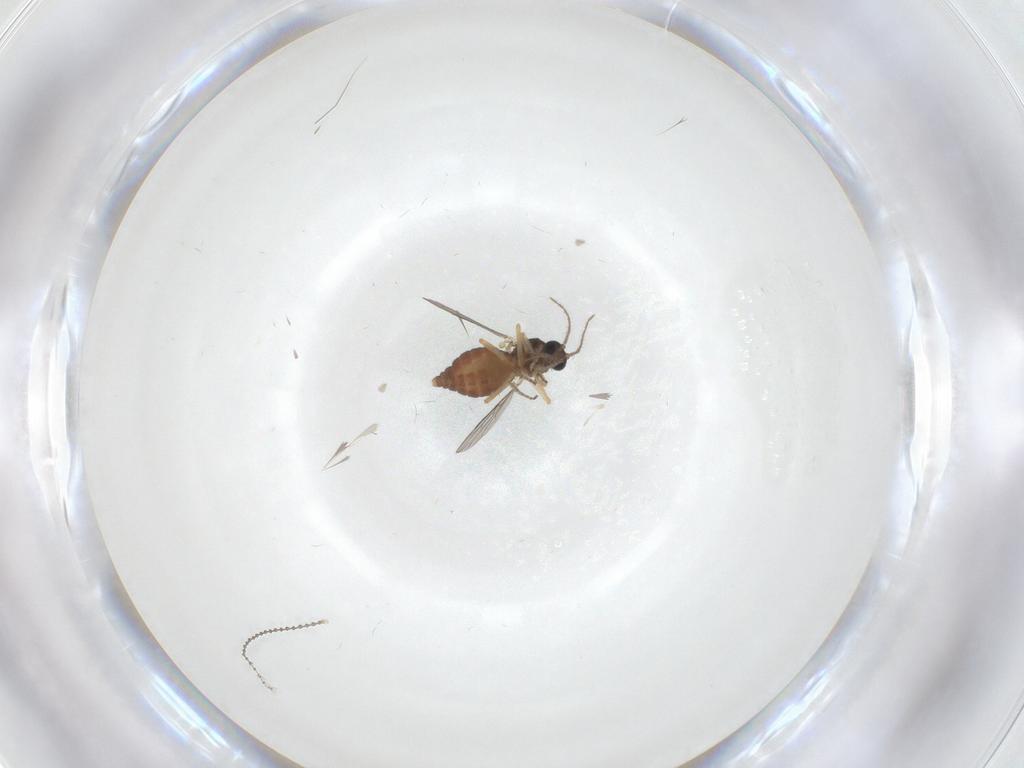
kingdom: Animalia
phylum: Arthropoda
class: Insecta
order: Diptera
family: Ceratopogonidae
